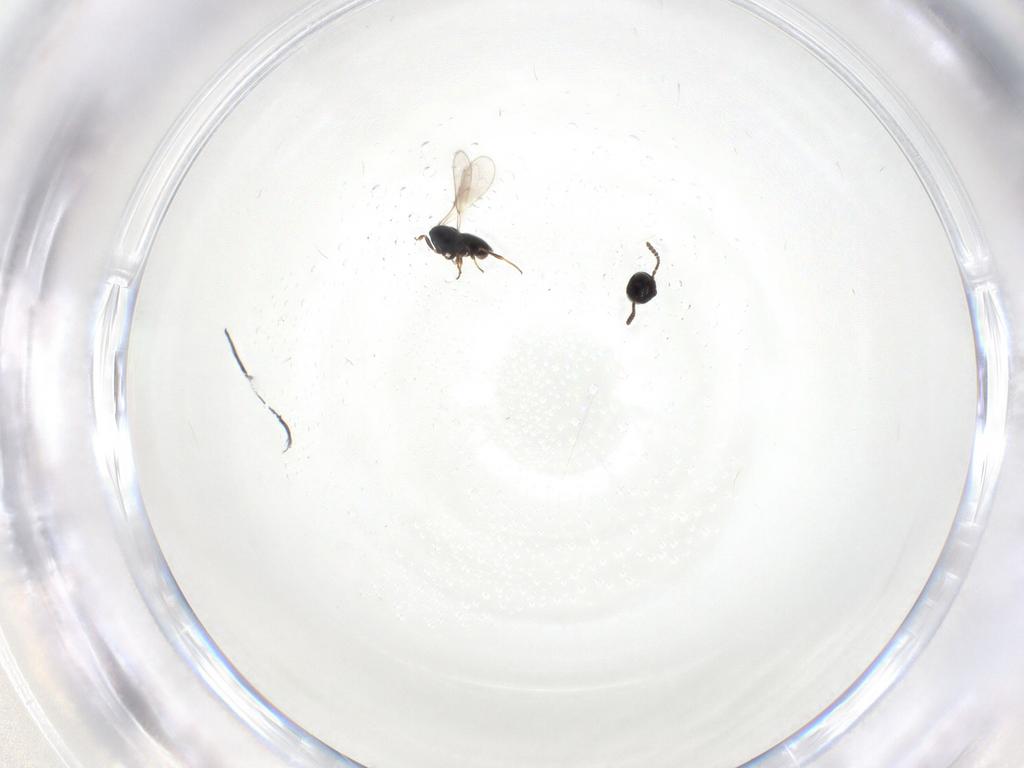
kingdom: Animalia
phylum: Arthropoda
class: Insecta
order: Hymenoptera
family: Scelionidae
